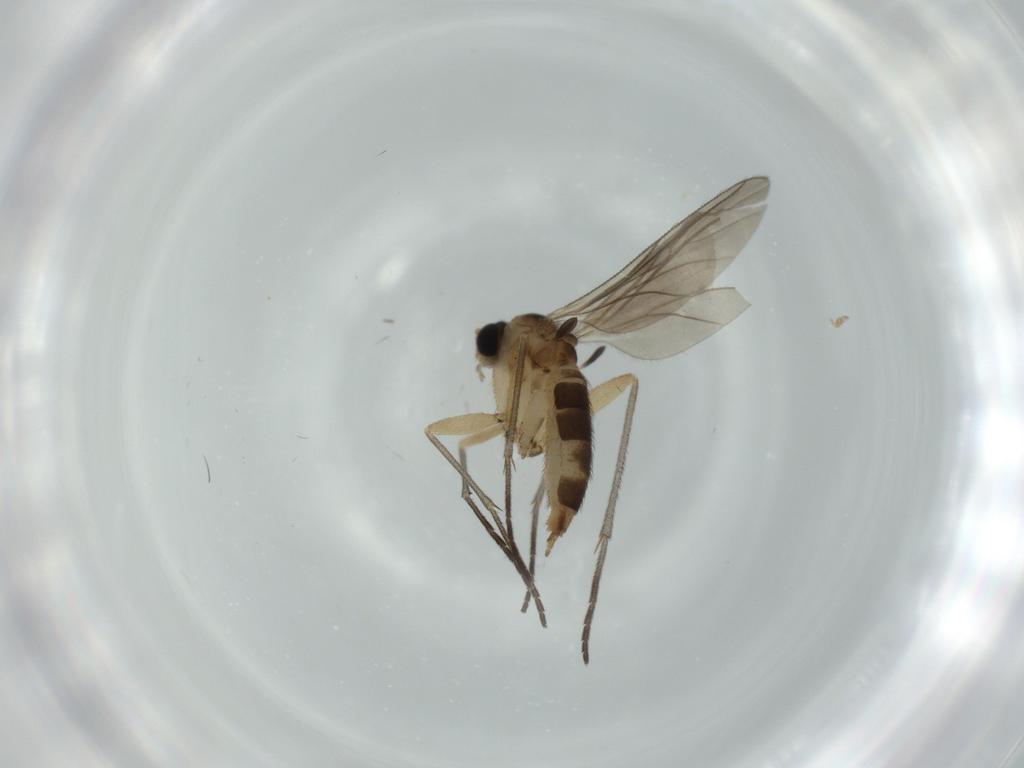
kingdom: Animalia
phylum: Arthropoda
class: Insecta
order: Diptera
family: Sciaridae
